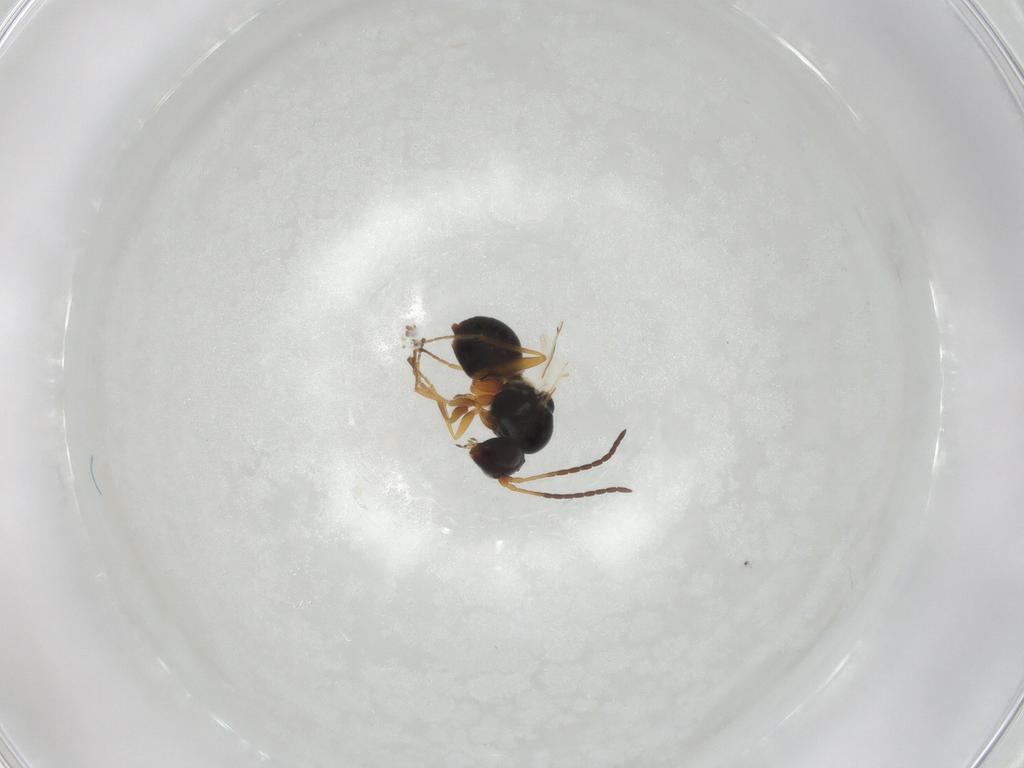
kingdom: Animalia
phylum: Arthropoda
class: Insecta
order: Hymenoptera
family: Figitidae
